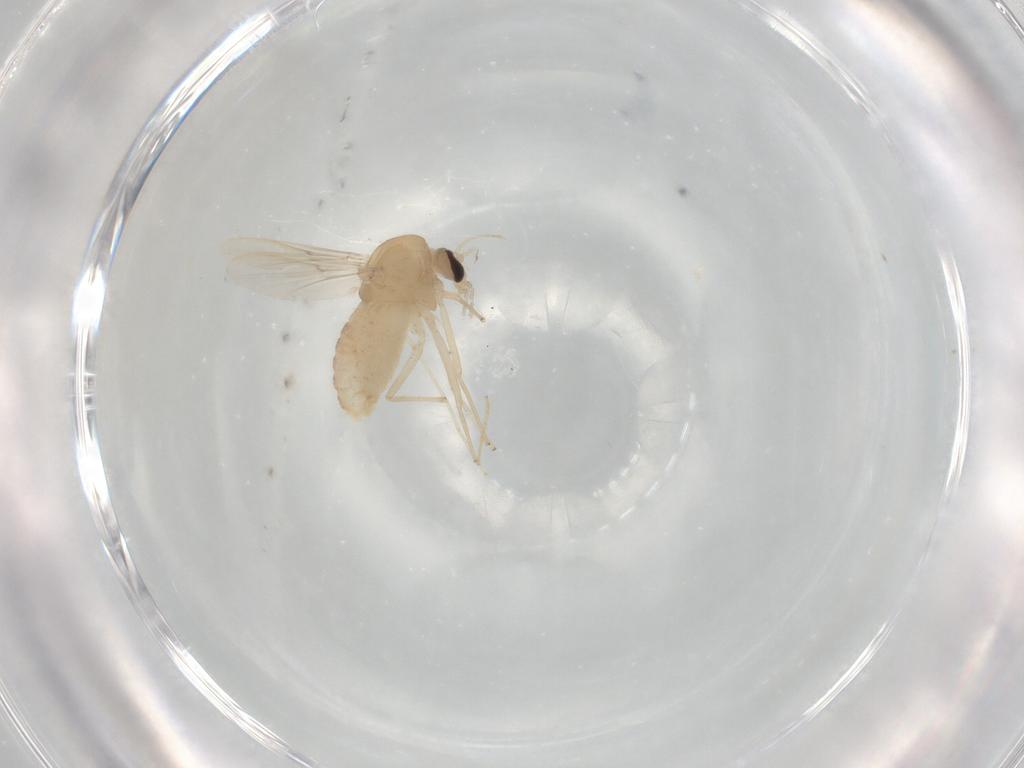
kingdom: Animalia
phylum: Arthropoda
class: Insecta
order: Diptera
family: Chironomidae
